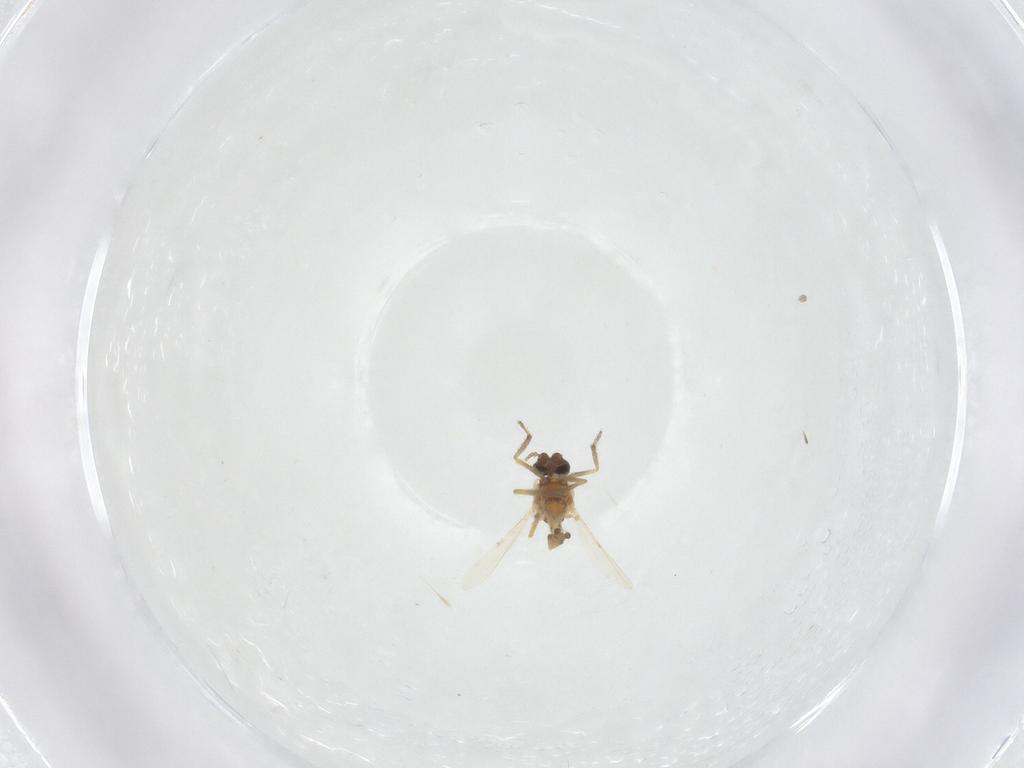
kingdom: Animalia
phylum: Arthropoda
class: Insecta
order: Diptera
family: Ceratopogonidae
